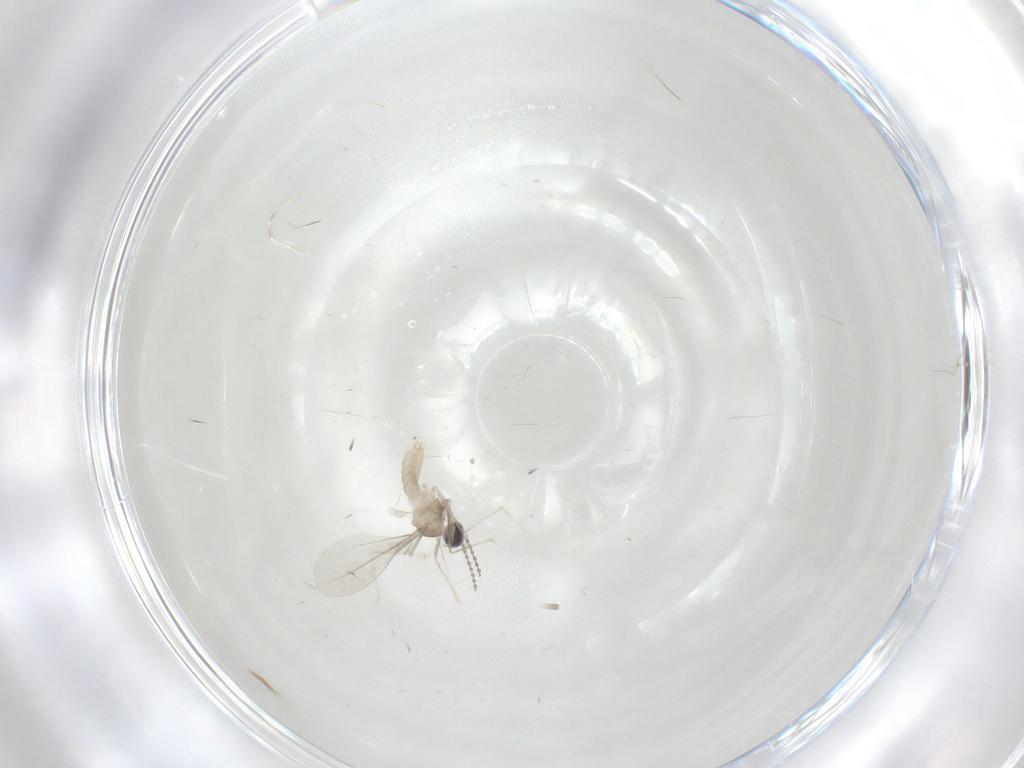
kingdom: Animalia
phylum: Arthropoda
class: Insecta
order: Diptera
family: Cecidomyiidae
